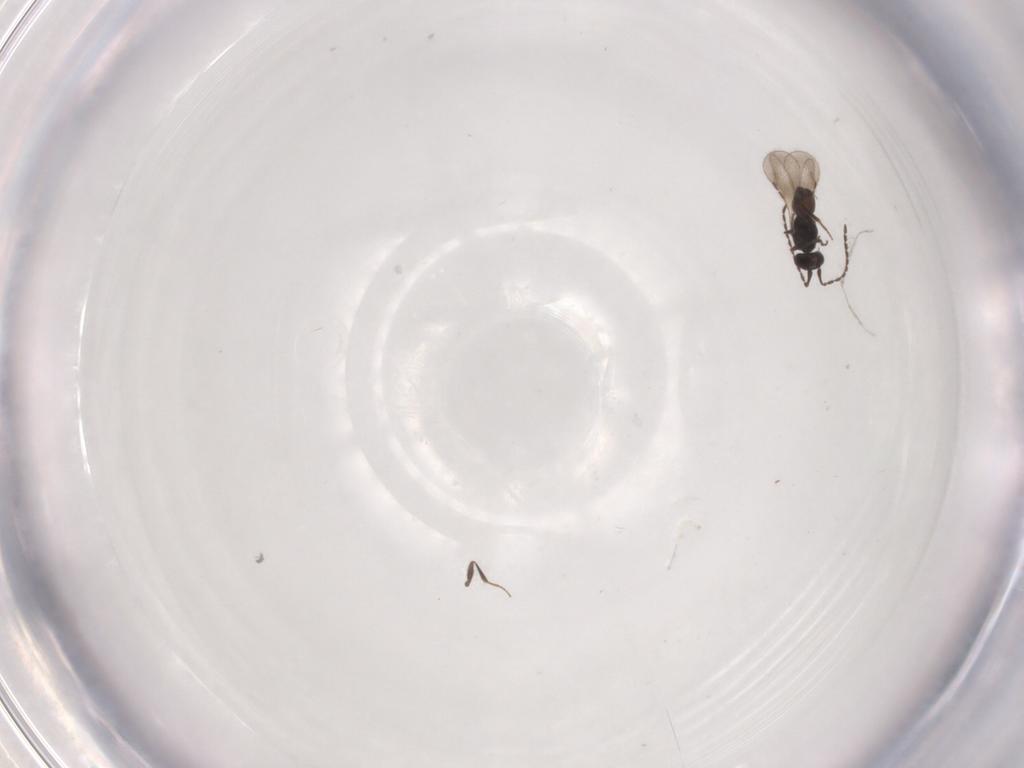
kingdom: Animalia
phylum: Arthropoda
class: Insecta
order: Hymenoptera
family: Ceraphronidae
